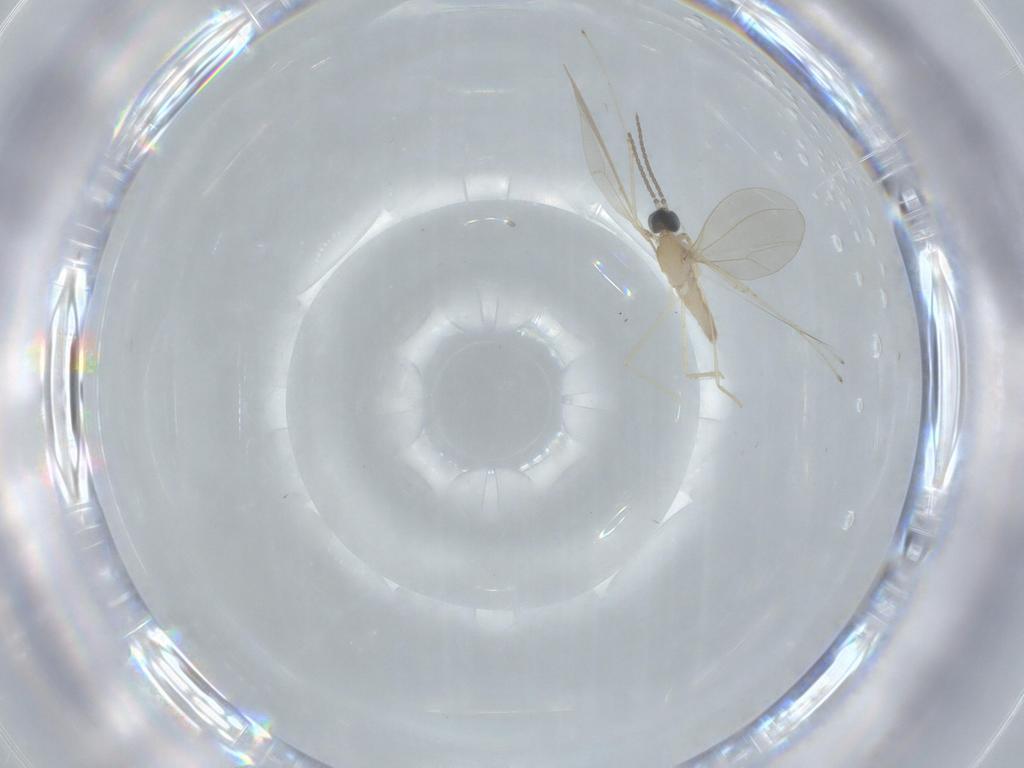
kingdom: Animalia
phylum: Arthropoda
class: Insecta
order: Diptera
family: Cecidomyiidae
